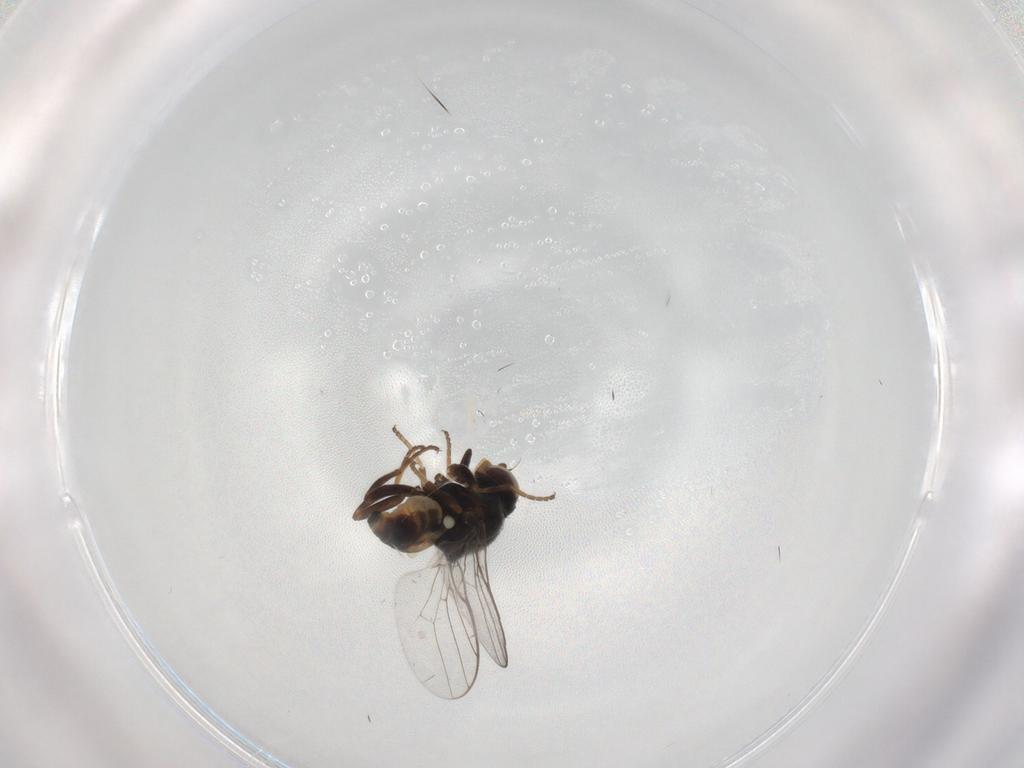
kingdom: Animalia
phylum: Arthropoda
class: Insecta
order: Diptera
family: Chloropidae
